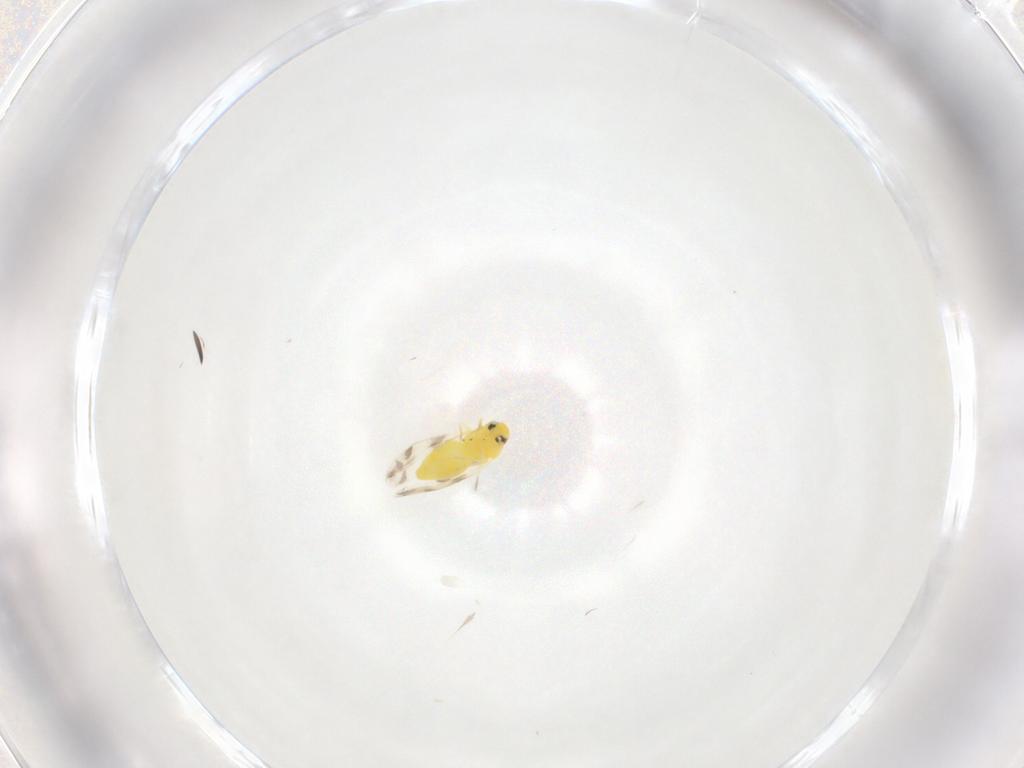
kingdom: Animalia
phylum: Arthropoda
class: Insecta
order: Hemiptera
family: Aleyrodidae
